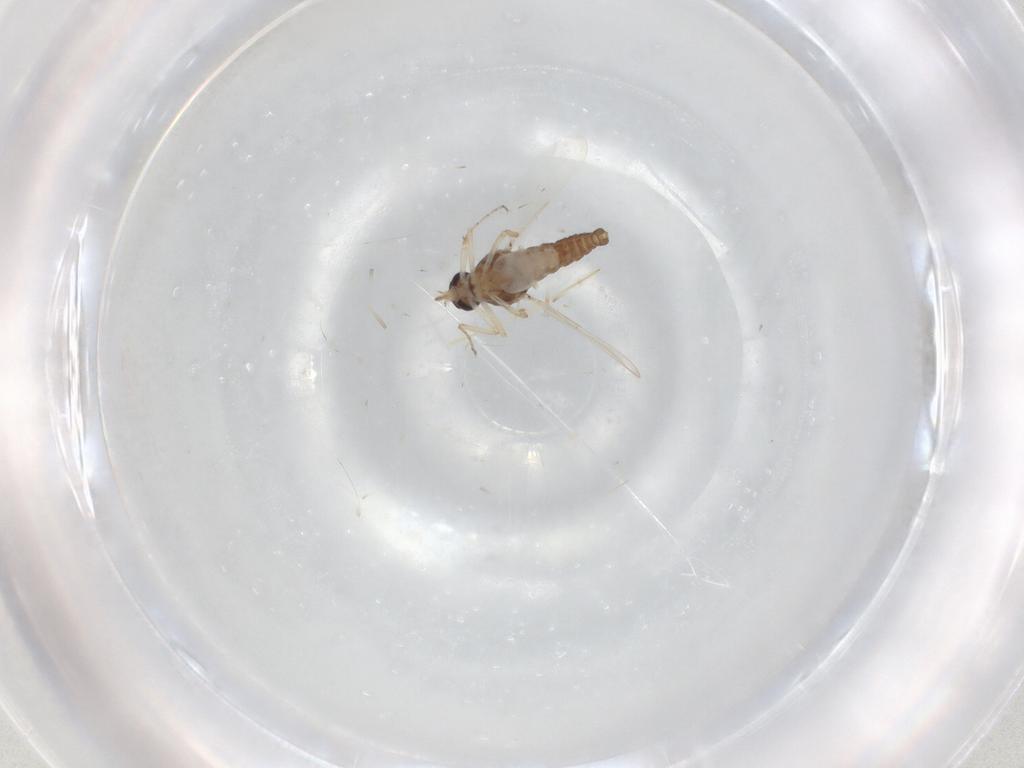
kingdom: Animalia
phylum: Arthropoda
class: Insecta
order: Diptera
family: Ceratopogonidae
